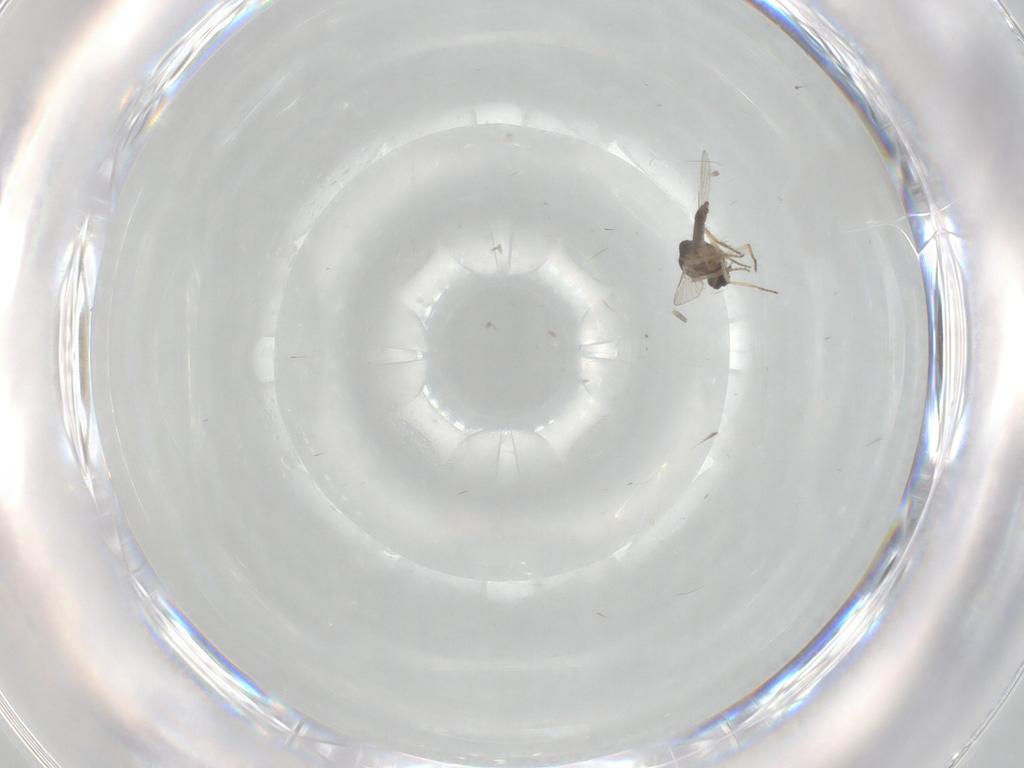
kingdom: Animalia
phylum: Arthropoda
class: Insecta
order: Diptera
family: Ceratopogonidae
